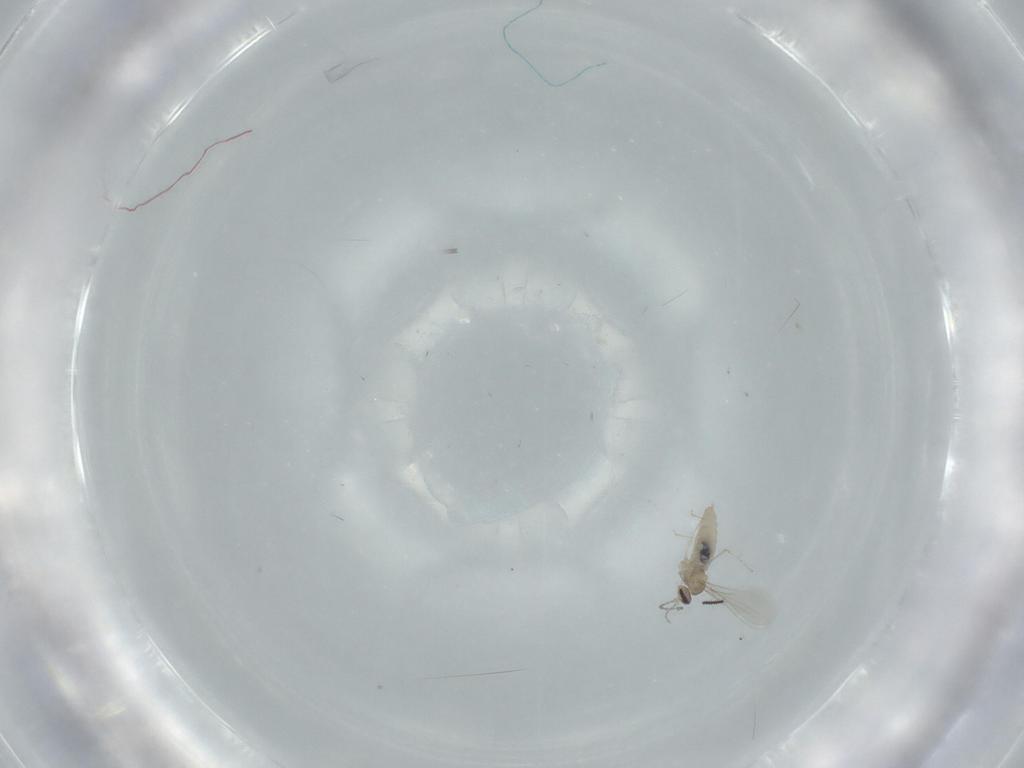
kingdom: Animalia
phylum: Arthropoda
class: Insecta
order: Diptera
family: Cecidomyiidae
